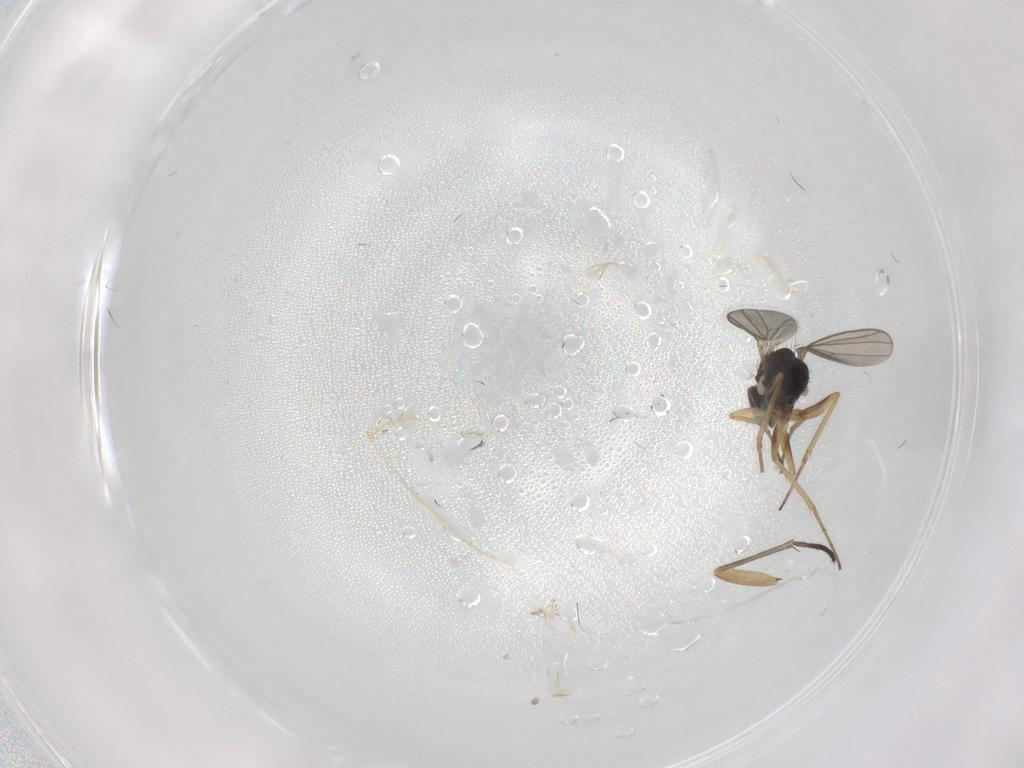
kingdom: Animalia
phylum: Arthropoda
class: Insecta
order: Diptera
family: Dolichopodidae
